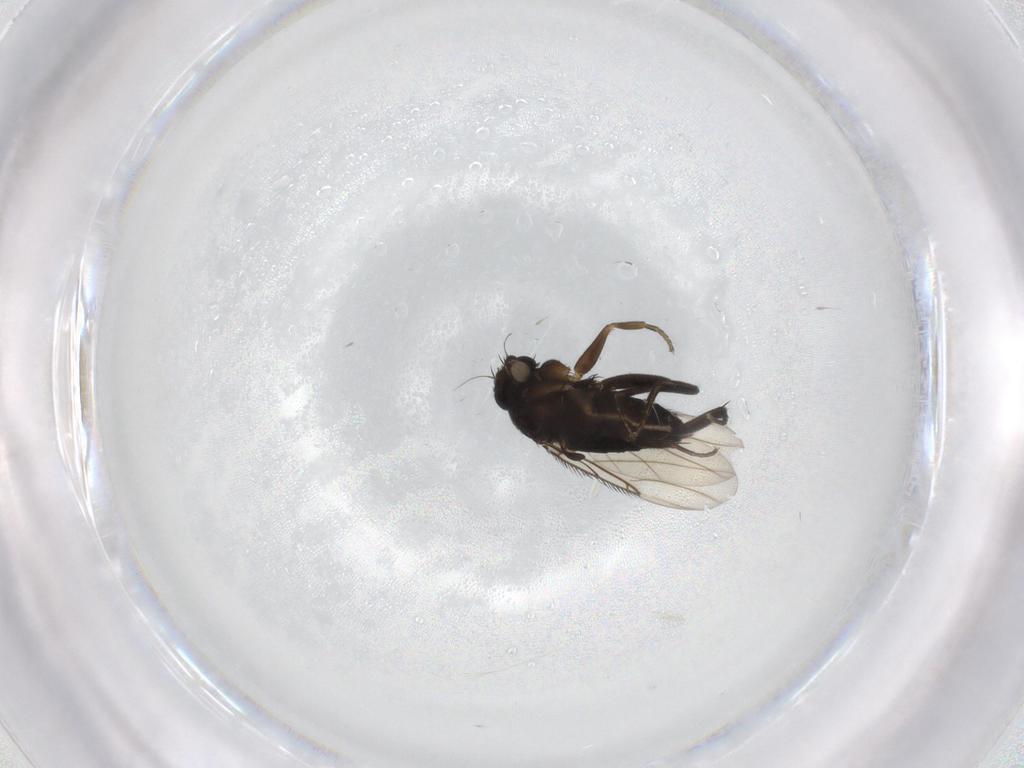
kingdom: Animalia
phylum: Arthropoda
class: Insecta
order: Diptera
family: Phoridae
